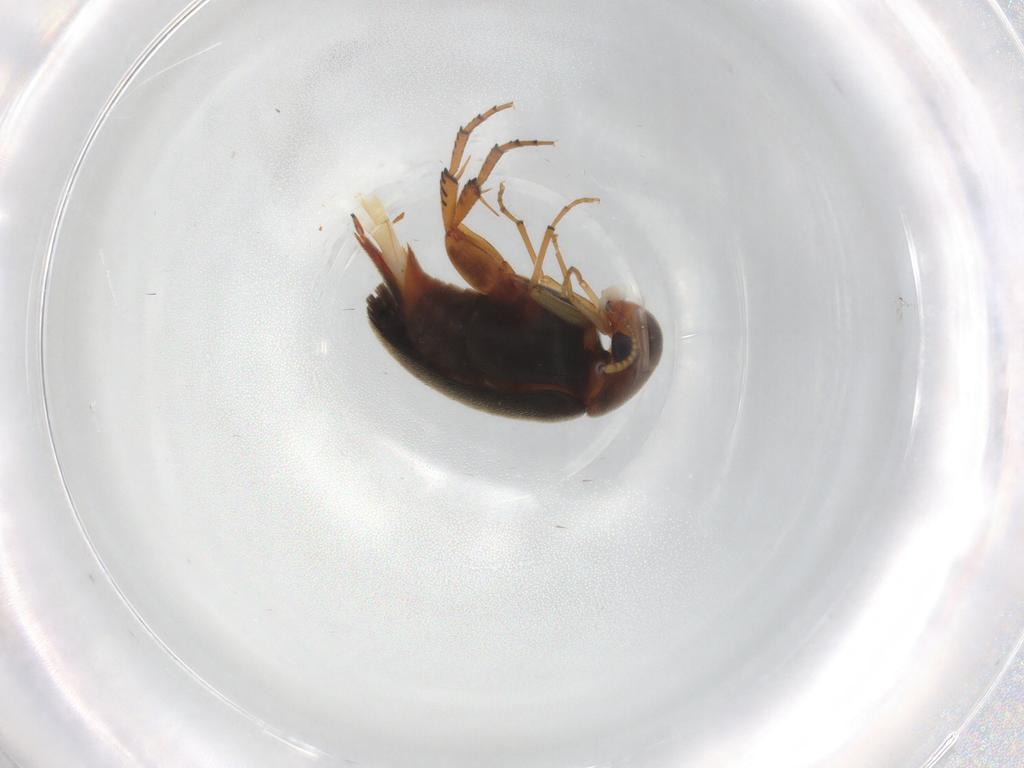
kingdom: Animalia
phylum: Arthropoda
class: Insecta
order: Coleoptera
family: Mordellidae
